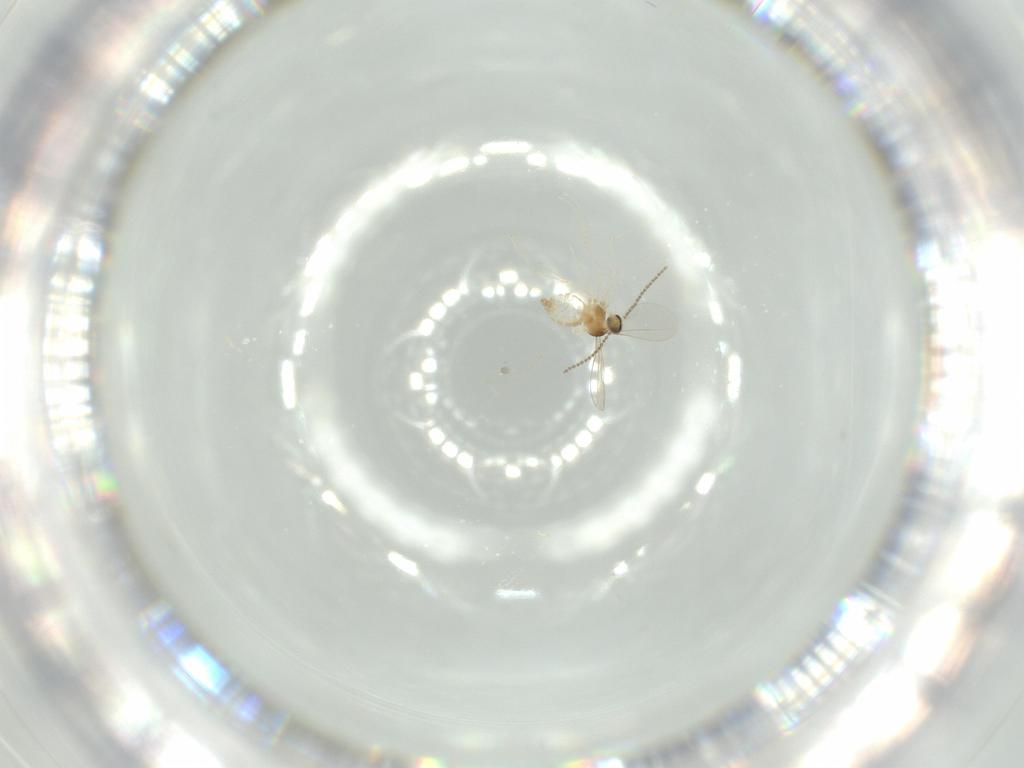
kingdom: Animalia
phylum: Arthropoda
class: Insecta
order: Diptera
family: Cecidomyiidae
